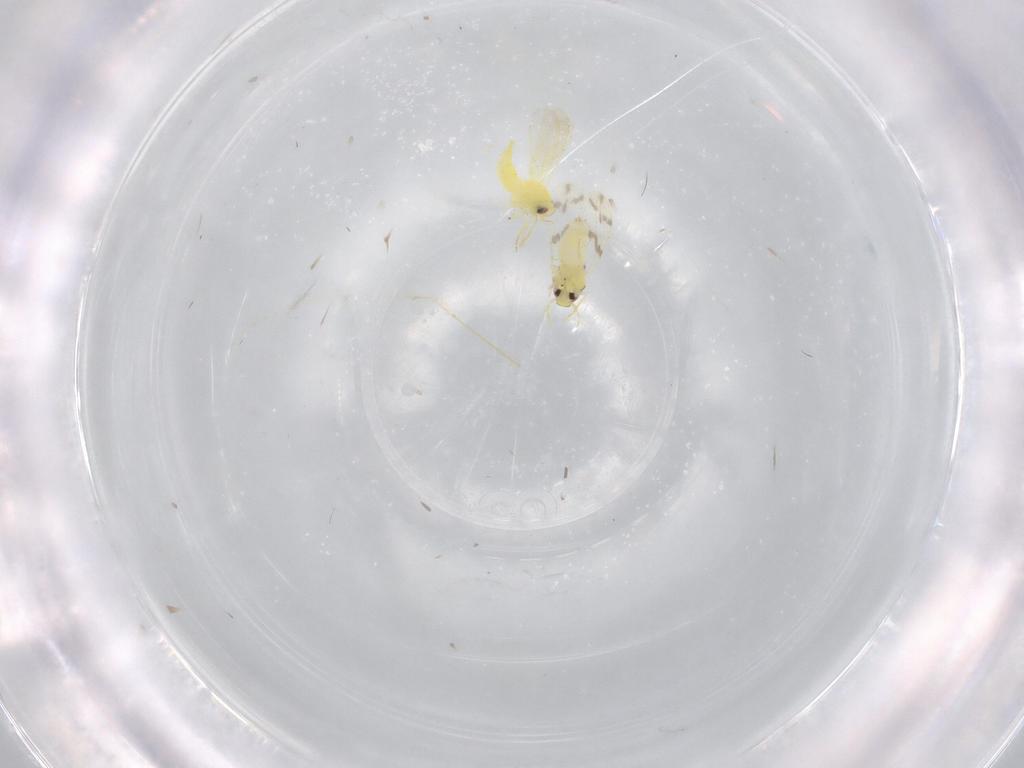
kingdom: Animalia
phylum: Arthropoda
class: Insecta
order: Hemiptera
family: Aleyrodidae
